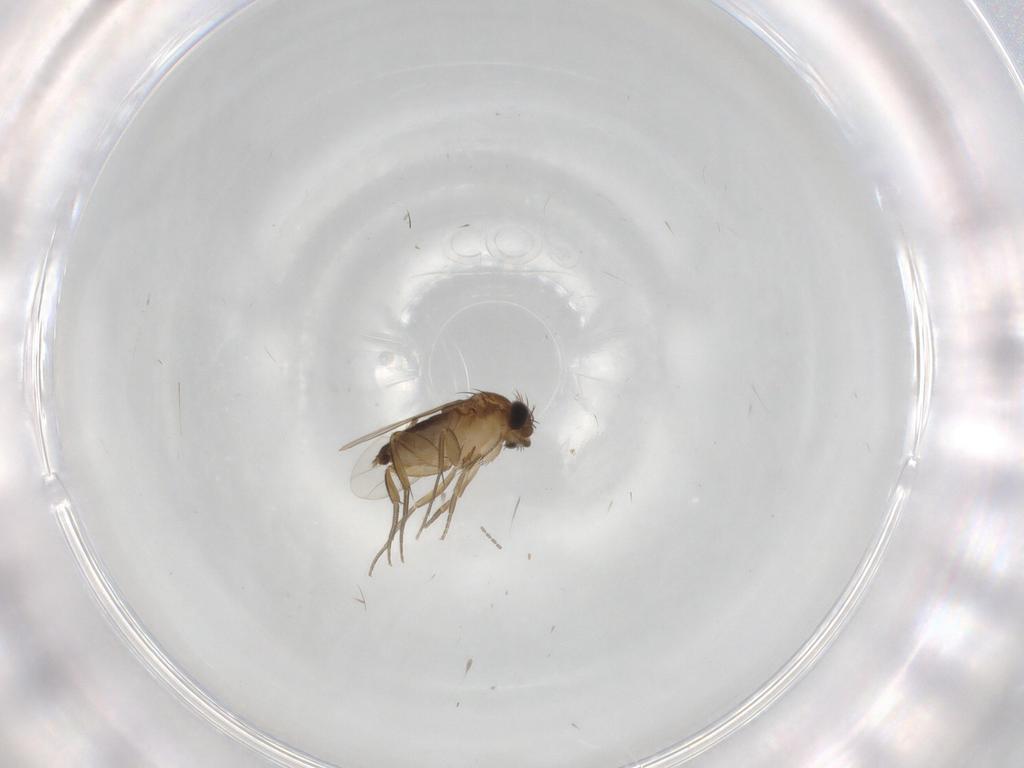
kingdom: Animalia
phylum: Arthropoda
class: Insecta
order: Diptera
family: Phoridae
